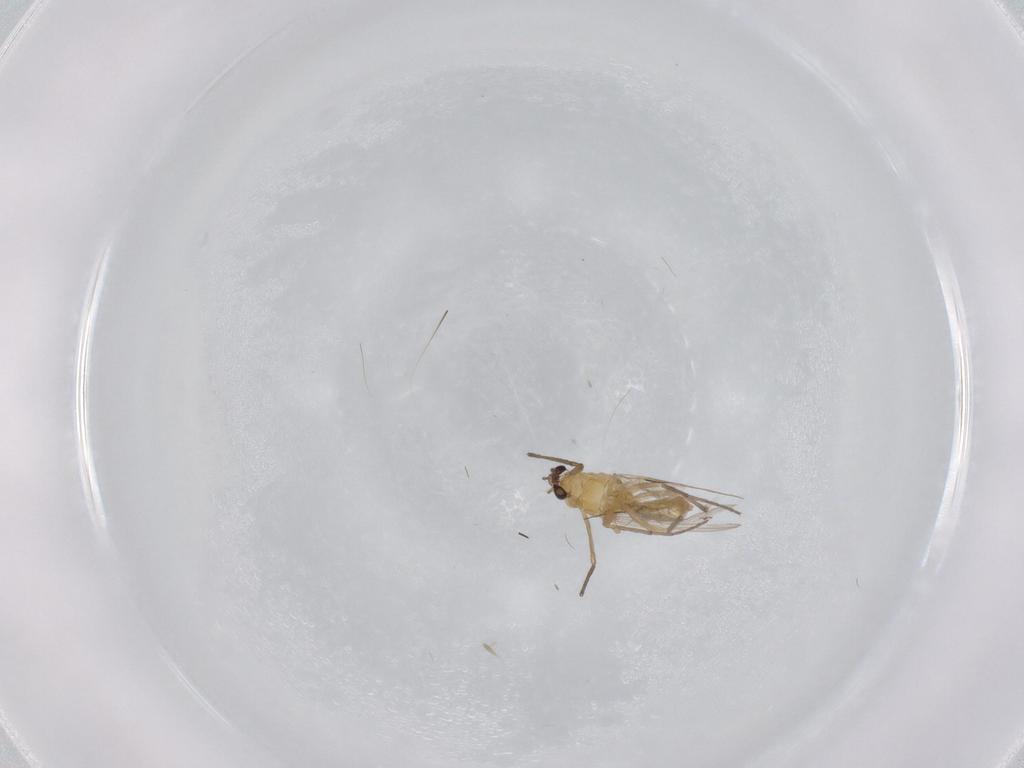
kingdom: Animalia
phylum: Arthropoda
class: Insecta
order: Diptera
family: Chironomidae
